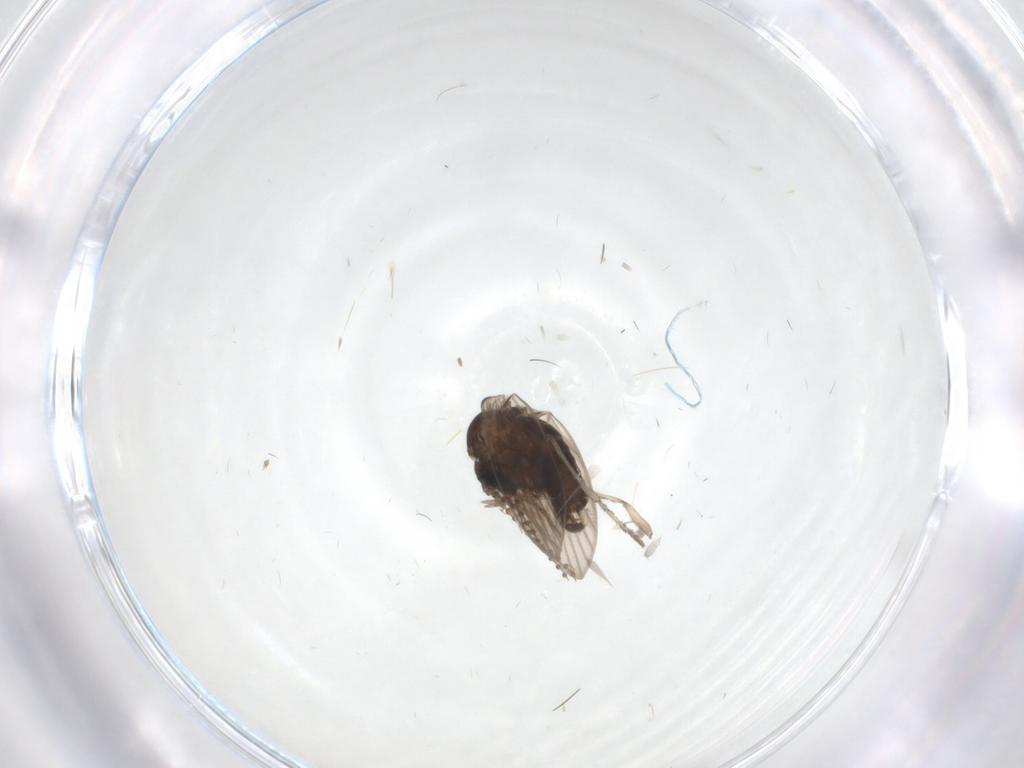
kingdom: Animalia
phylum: Arthropoda
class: Insecta
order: Diptera
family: Psychodidae
